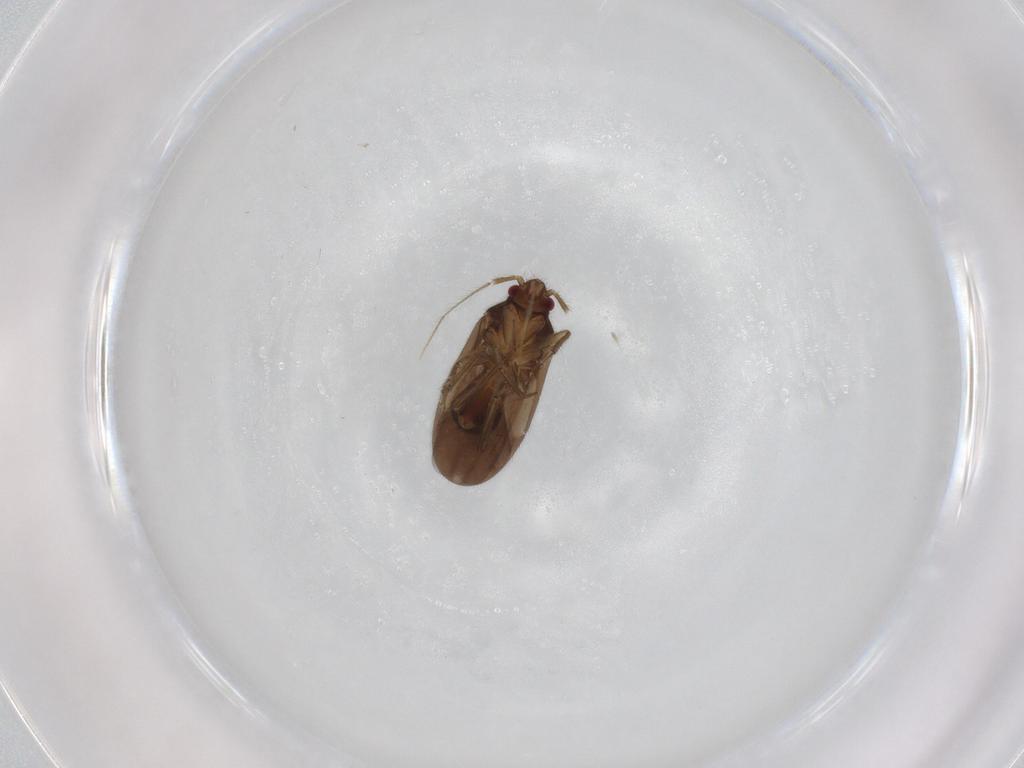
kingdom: Animalia
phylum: Arthropoda
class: Insecta
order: Hemiptera
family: Ceratocombidae
